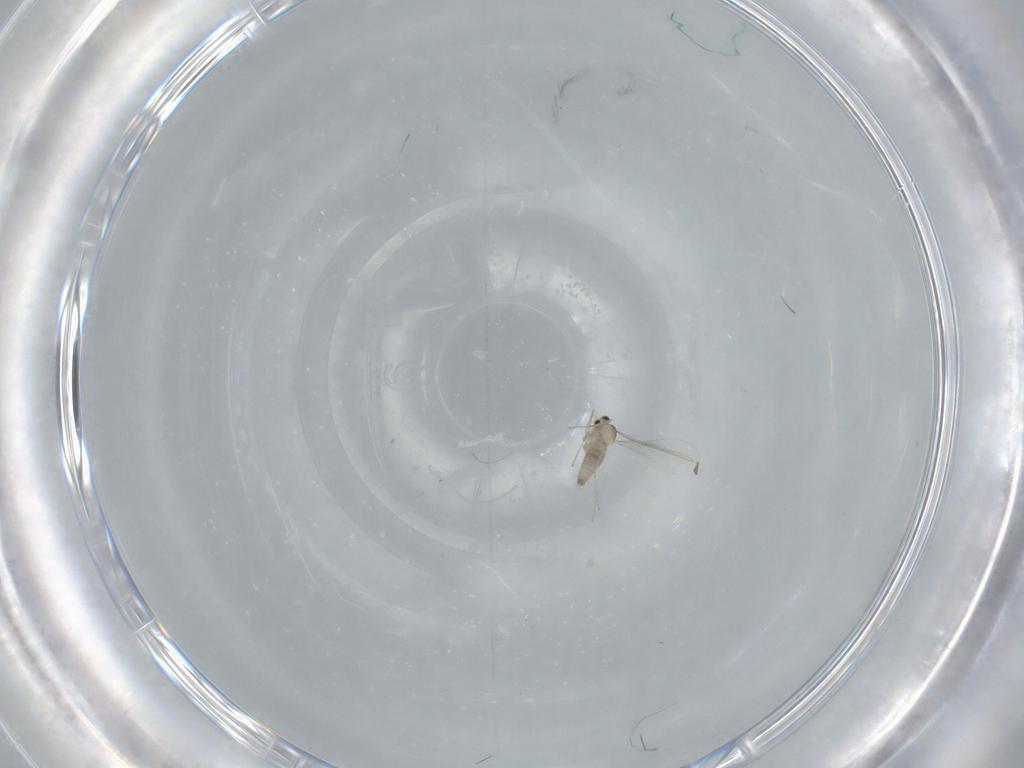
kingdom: Animalia
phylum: Arthropoda
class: Insecta
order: Diptera
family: Cecidomyiidae
